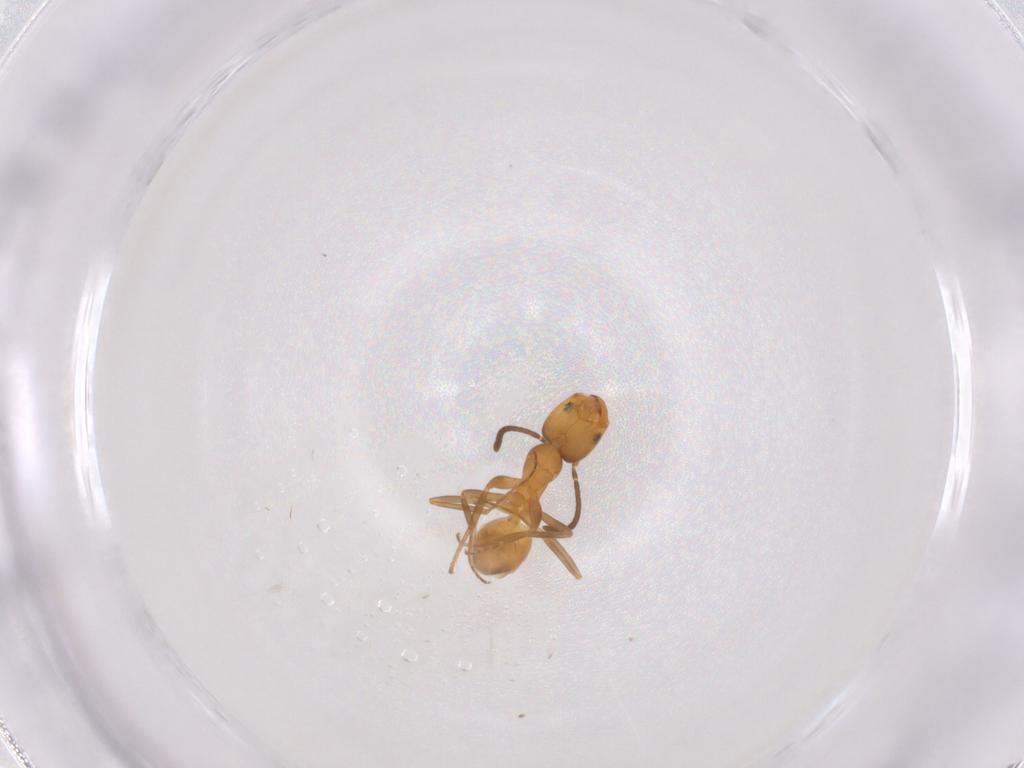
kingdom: Animalia
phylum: Arthropoda
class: Insecta
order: Hymenoptera
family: Formicidae
